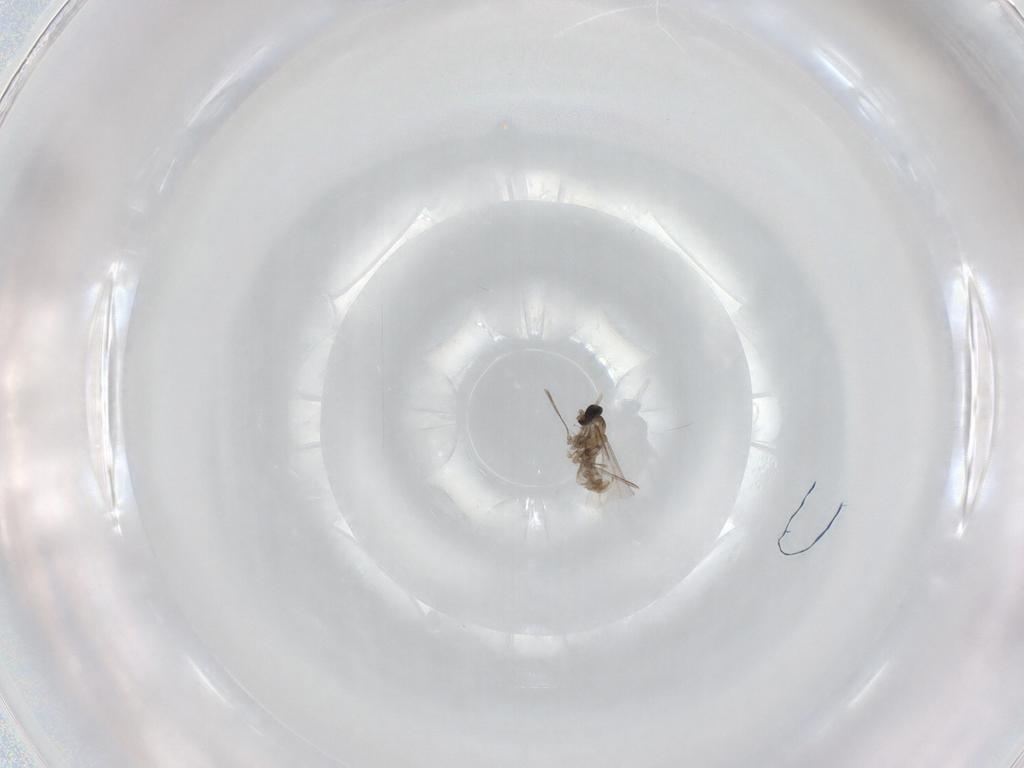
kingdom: Animalia
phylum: Arthropoda
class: Insecta
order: Diptera
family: Cecidomyiidae
